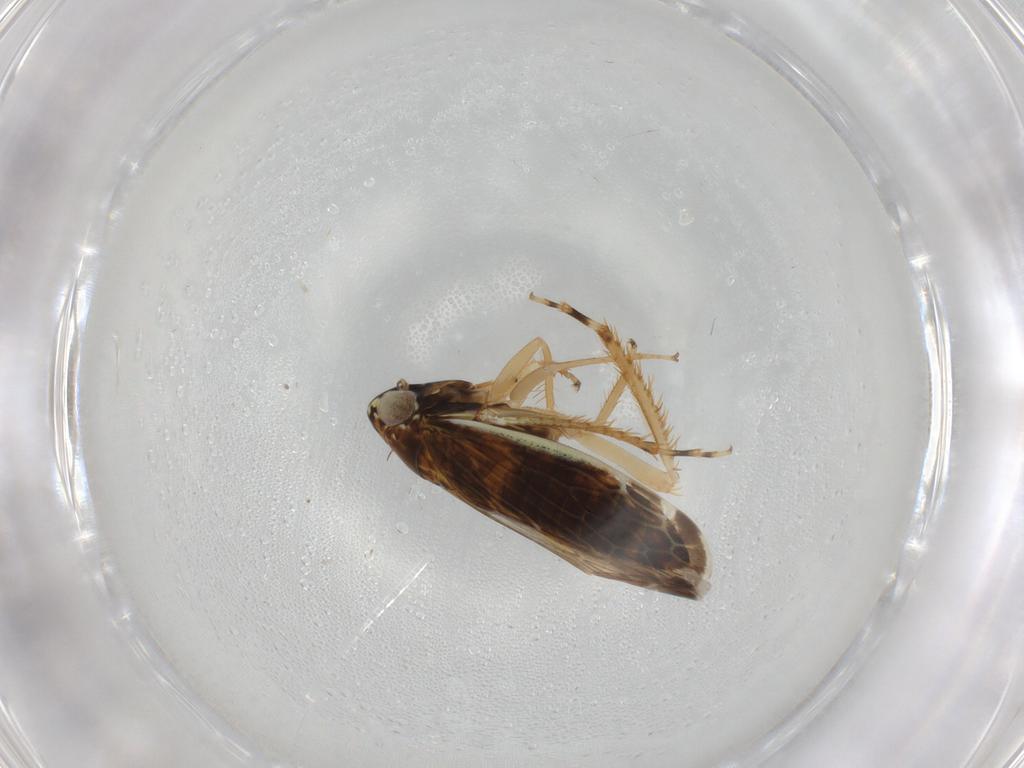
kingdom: Animalia
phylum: Arthropoda
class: Insecta
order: Hemiptera
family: Cicadellidae
